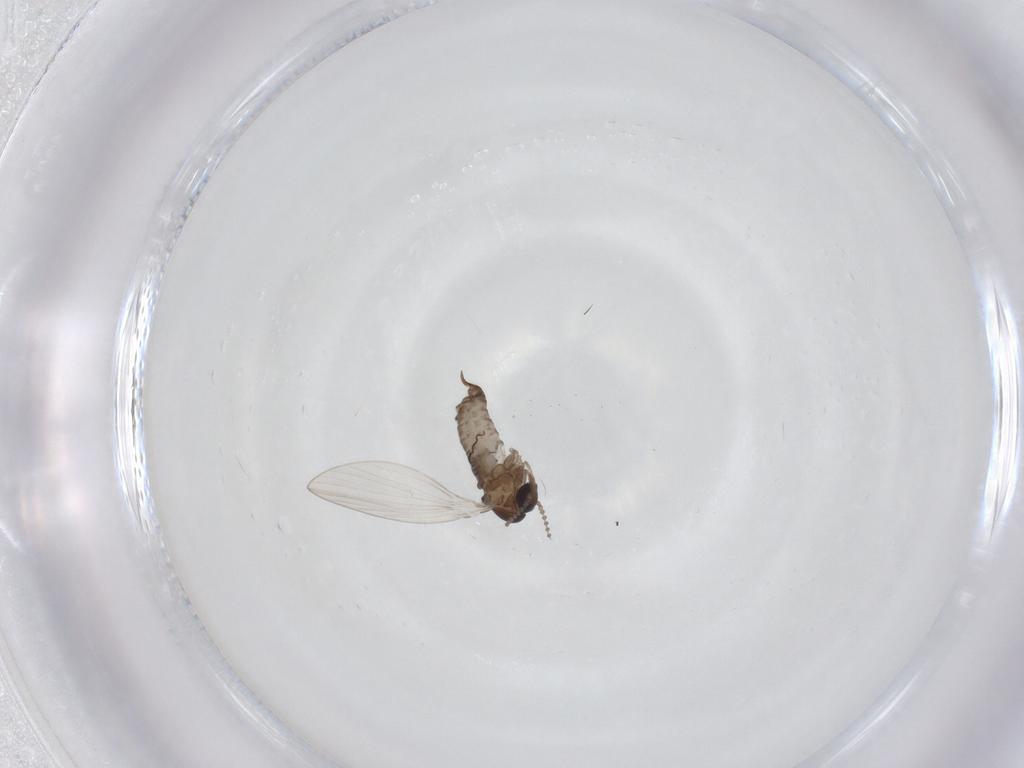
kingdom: Animalia
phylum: Arthropoda
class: Insecta
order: Diptera
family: Psychodidae
